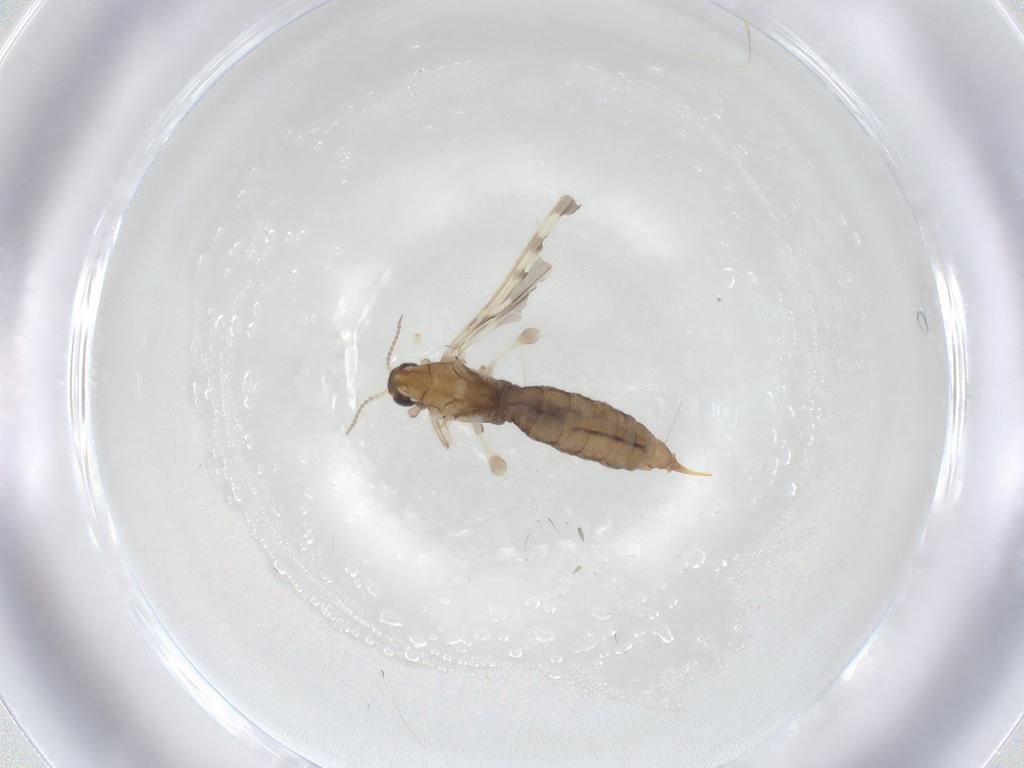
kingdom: Animalia
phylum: Arthropoda
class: Insecta
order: Diptera
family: Limoniidae
